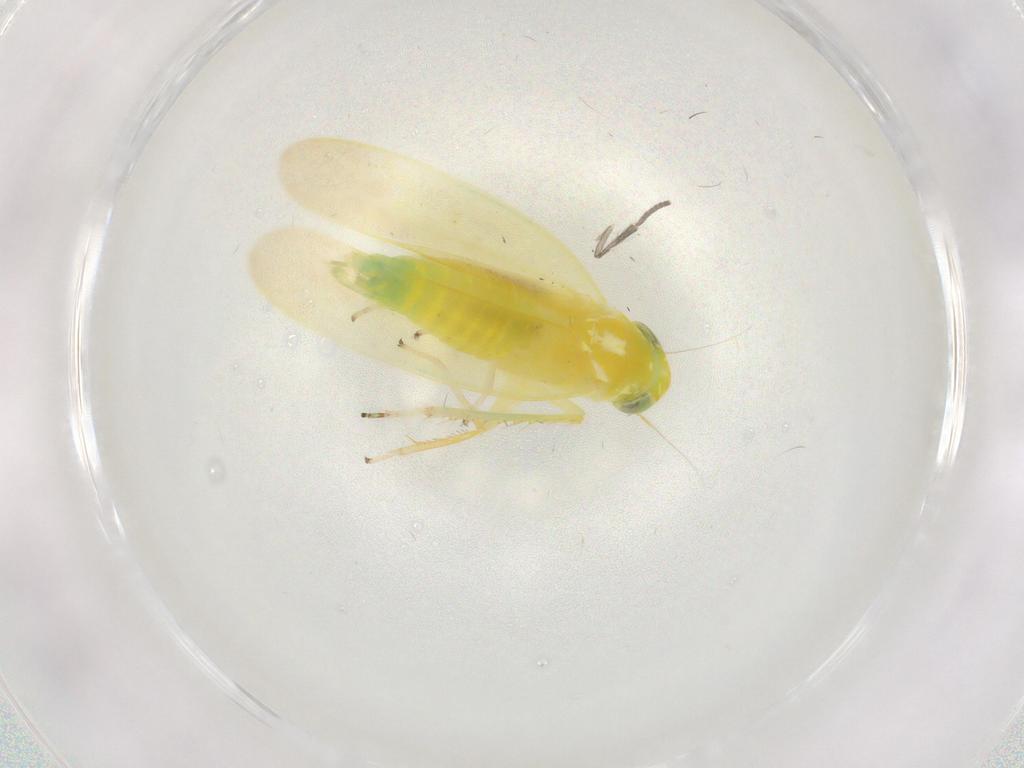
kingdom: Animalia
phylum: Arthropoda
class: Insecta
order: Hemiptera
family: Cicadellidae
